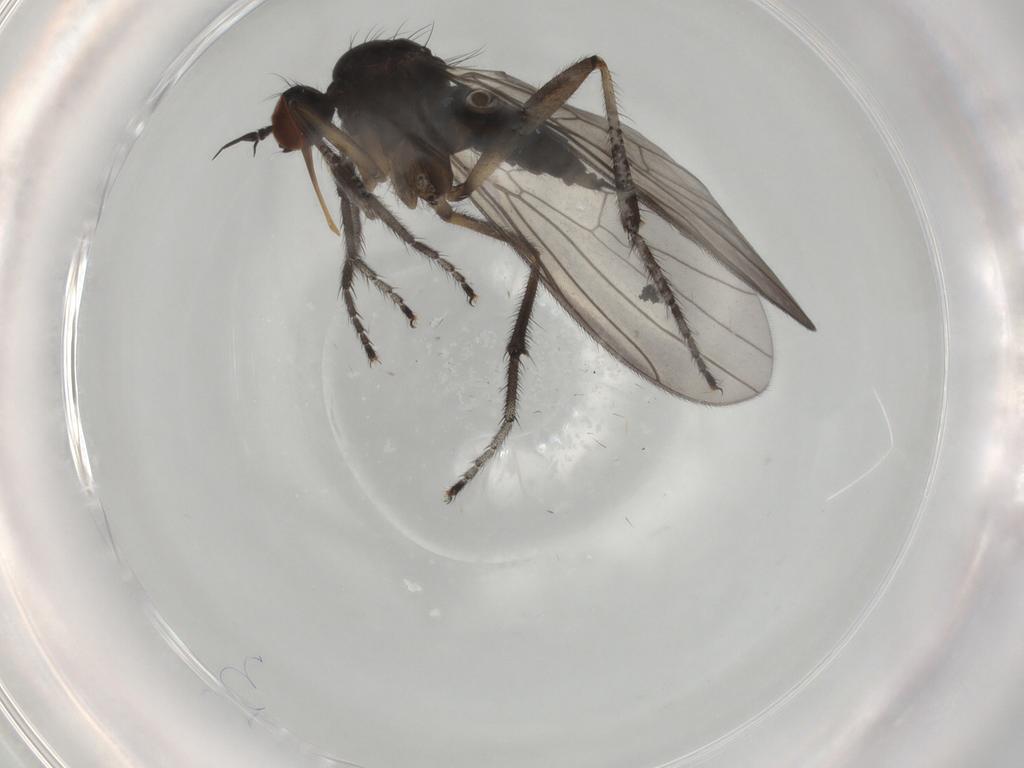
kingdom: Animalia
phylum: Arthropoda
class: Insecta
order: Diptera
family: Empididae
